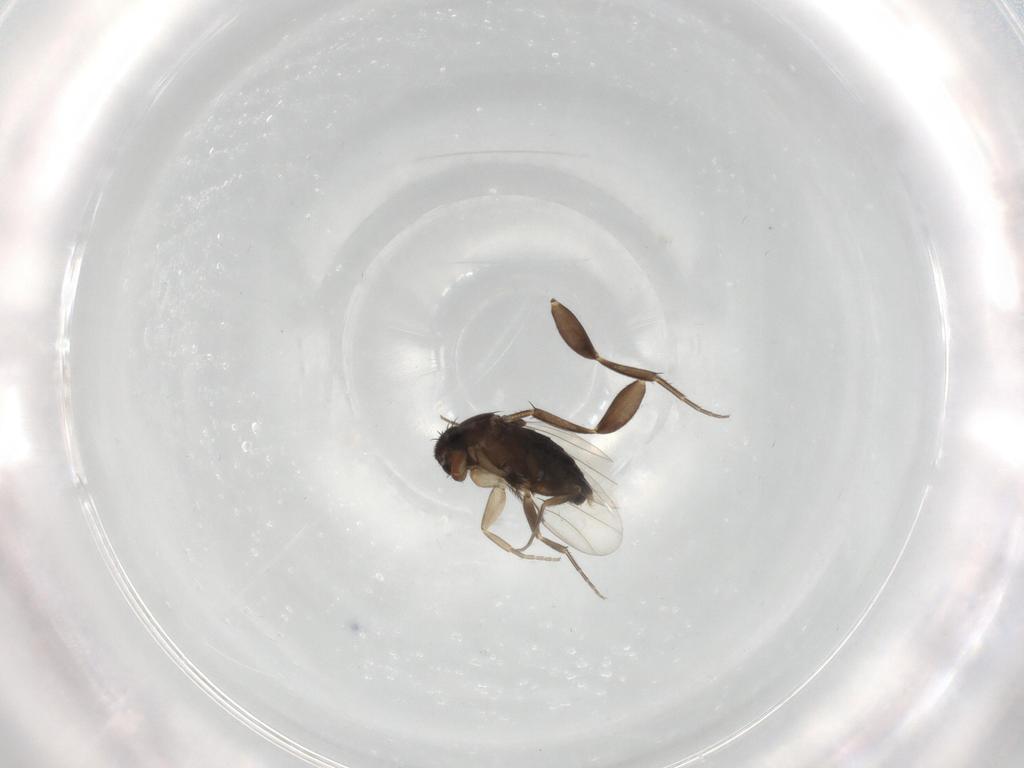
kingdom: Animalia
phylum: Arthropoda
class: Insecta
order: Diptera
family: Phoridae
